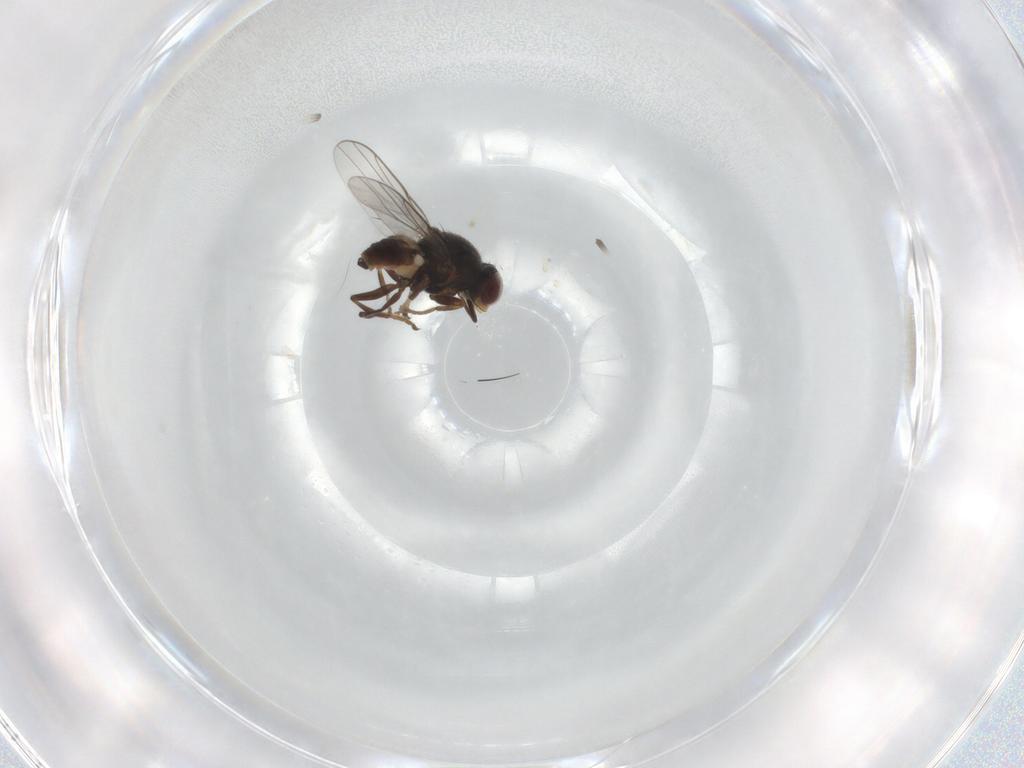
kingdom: Animalia
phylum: Arthropoda
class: Insecta
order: Diptera
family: Chloropidae
